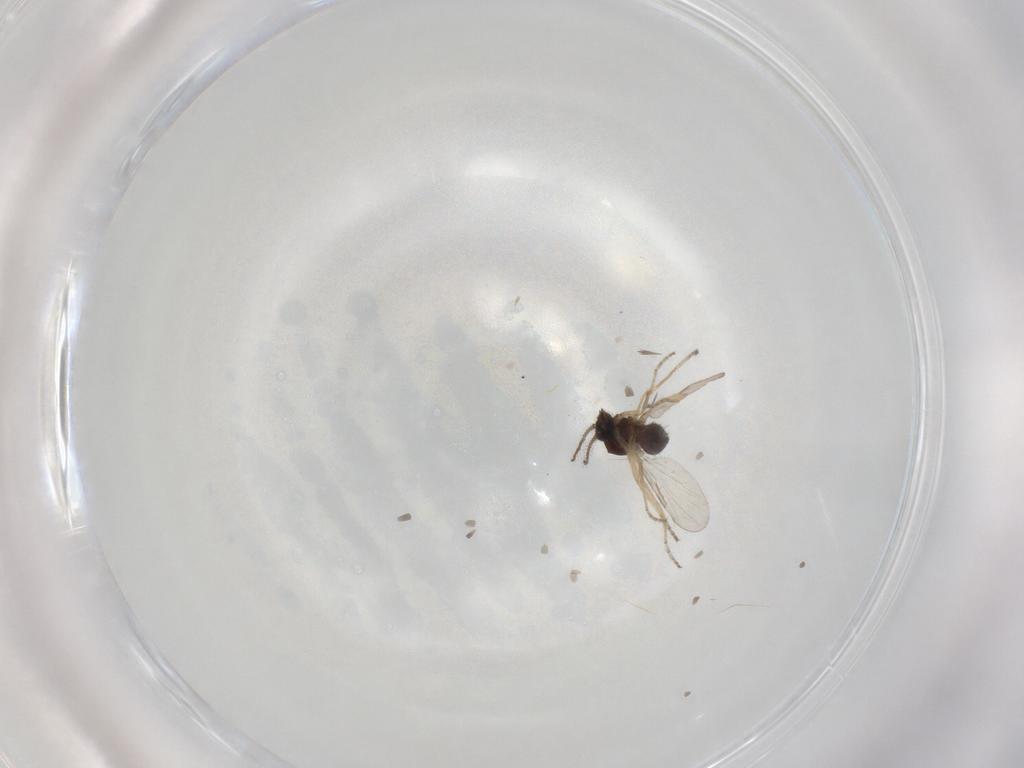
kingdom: Animalia
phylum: Arthropoda
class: Insecta
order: Diptera
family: Ceratopogonidae
